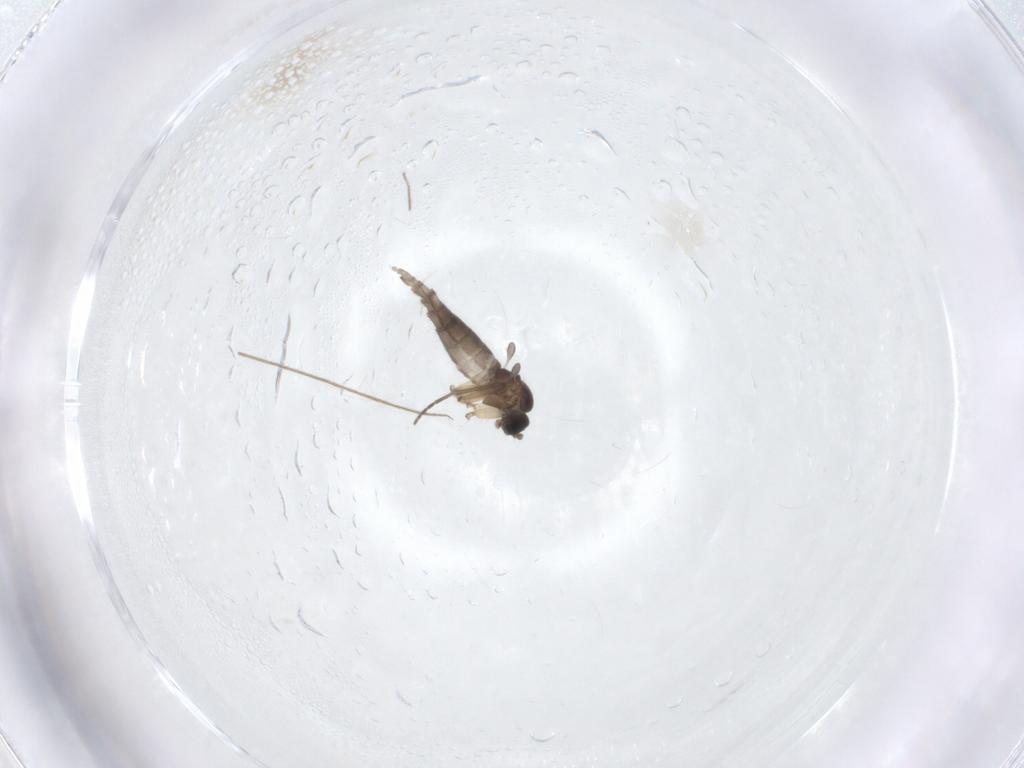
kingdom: Animalia
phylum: Arthropoda
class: Insecta
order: Diptera
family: Sciaridae
